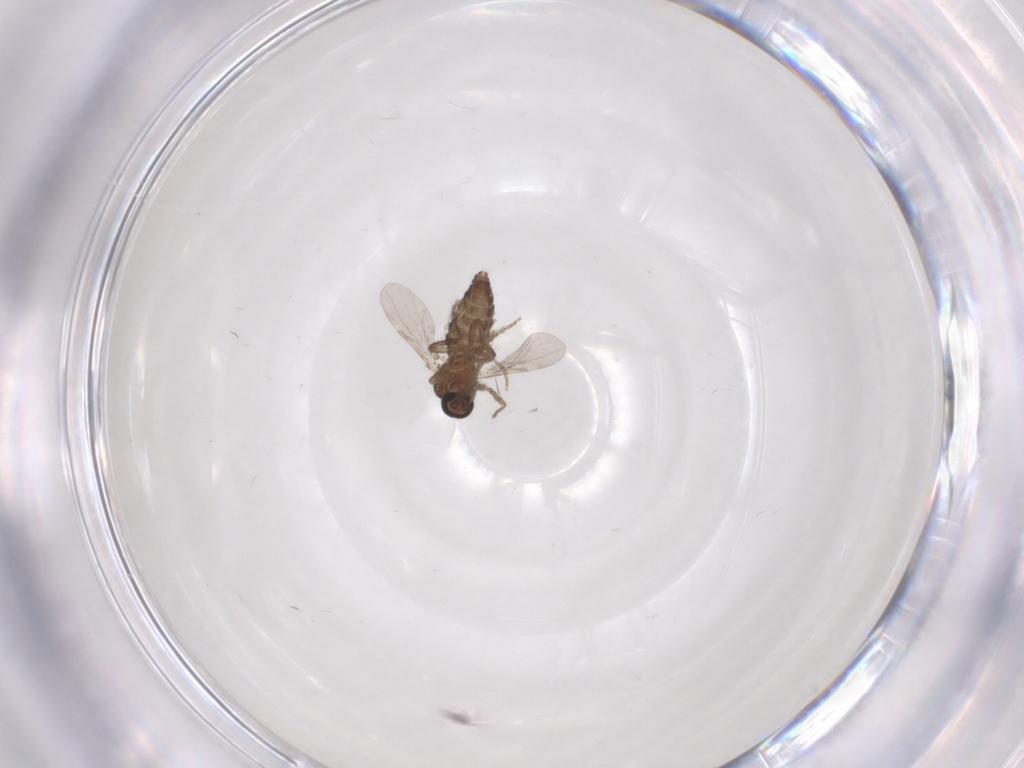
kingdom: Animalia
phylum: Arthropoda
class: Insecta
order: Diptera
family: Ceratopogonidae
